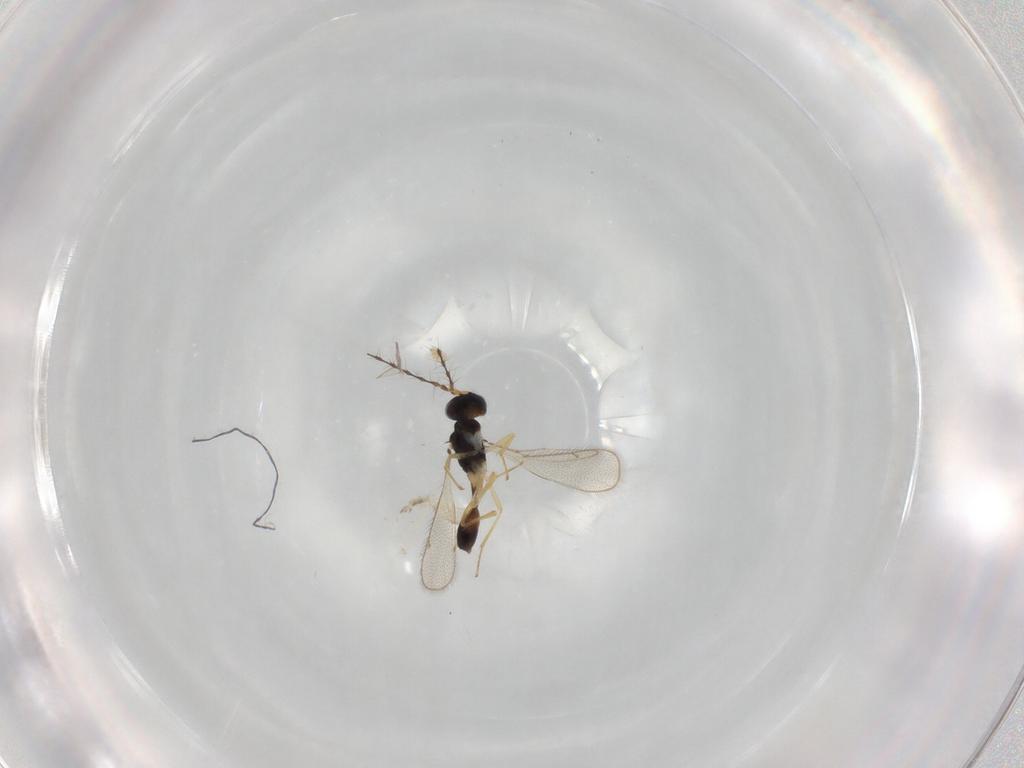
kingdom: Animalia
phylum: Arthropoda
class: Insecta
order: Hymenoptera
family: Diparidae
